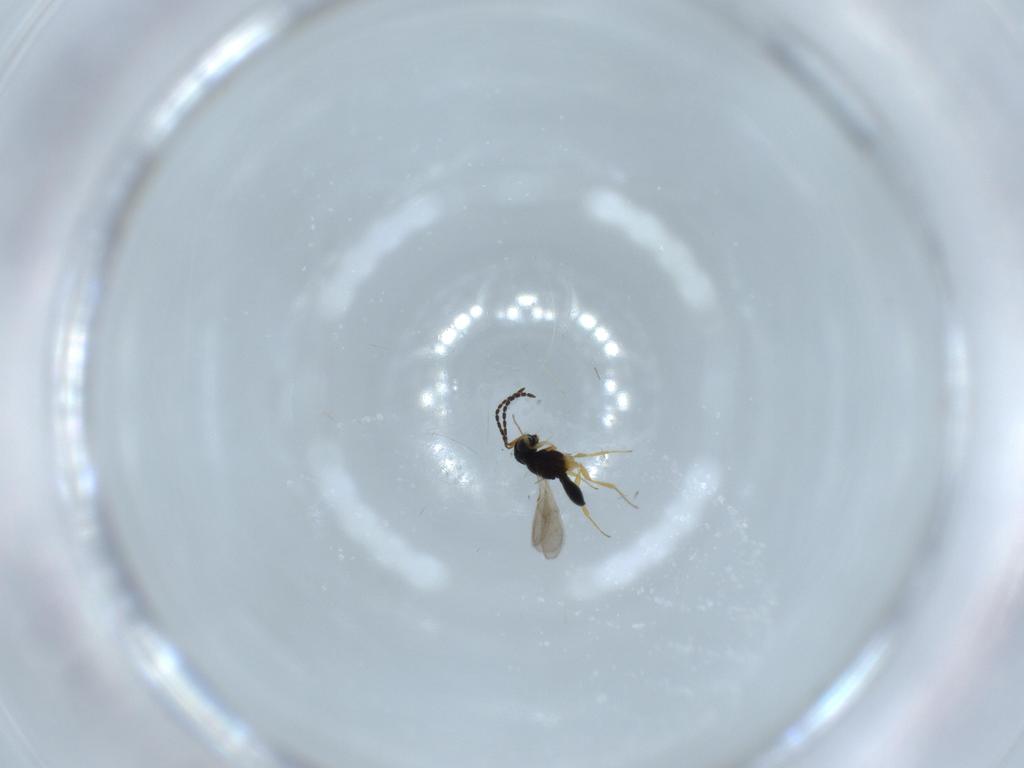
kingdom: Animalia
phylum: Arthropoda
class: Insecta
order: Hymenoptera
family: Scelionidae
